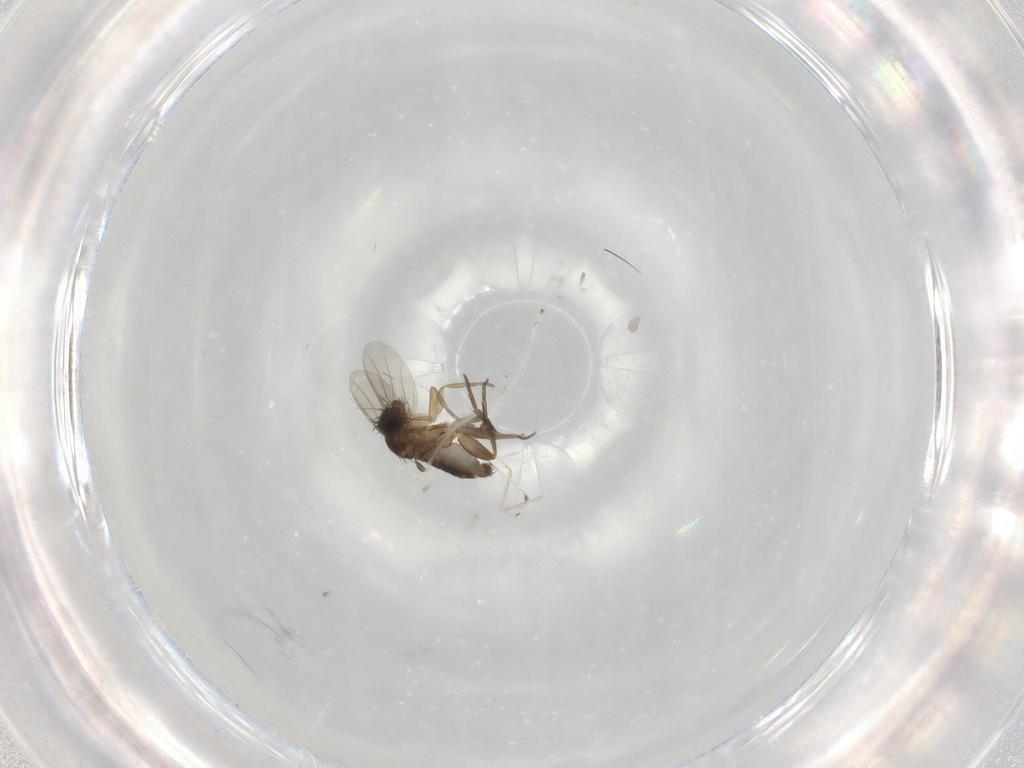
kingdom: Animalia
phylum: Arthropoda
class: Insecta
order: Diptera
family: Phoridae
